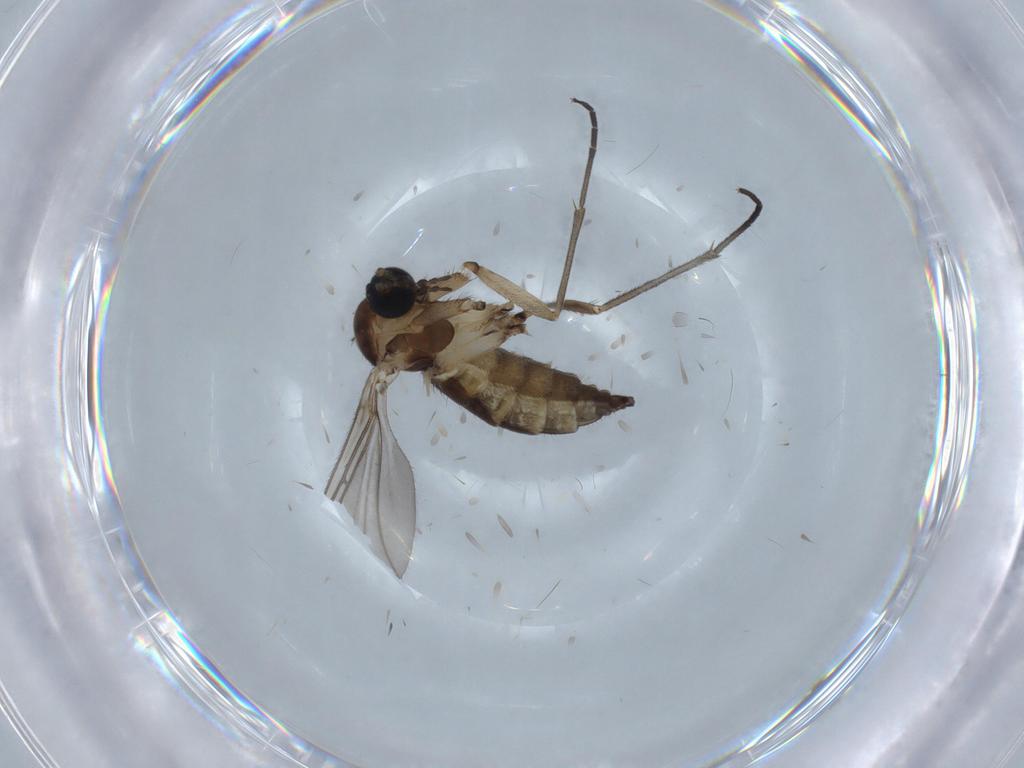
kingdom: Animalia
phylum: Arthropoda
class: Insecta
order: Diptera
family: Sciaridae
